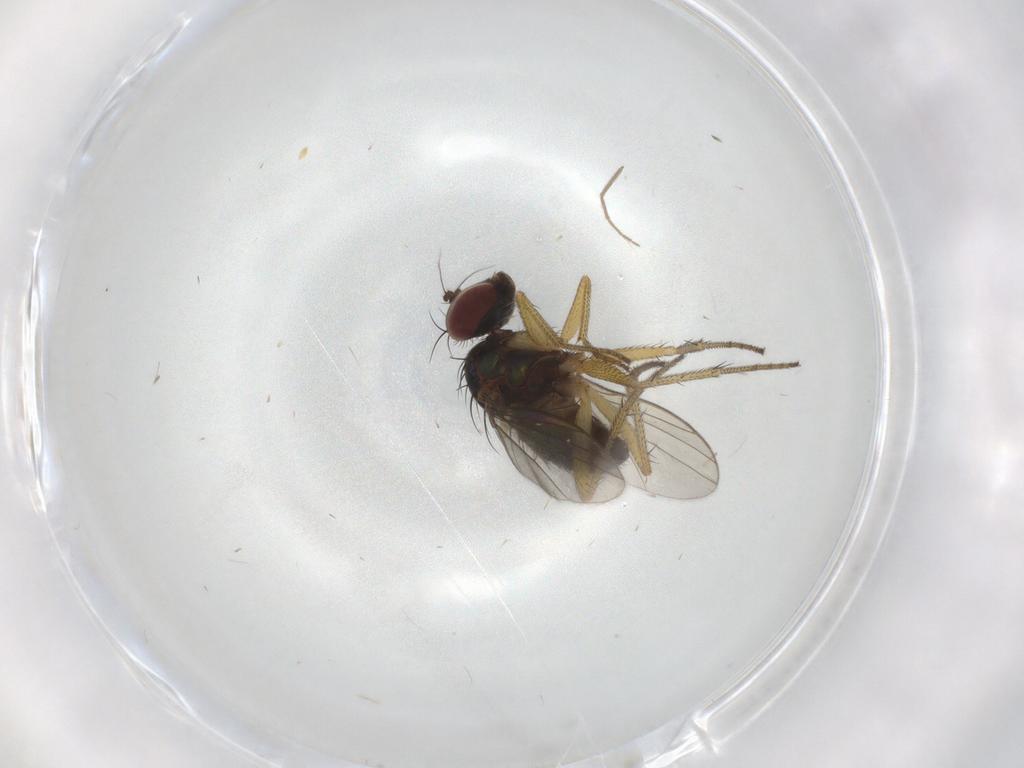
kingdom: Animalia
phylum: Arthropoda
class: Insecta
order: Diptera
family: Dolichopodidae
